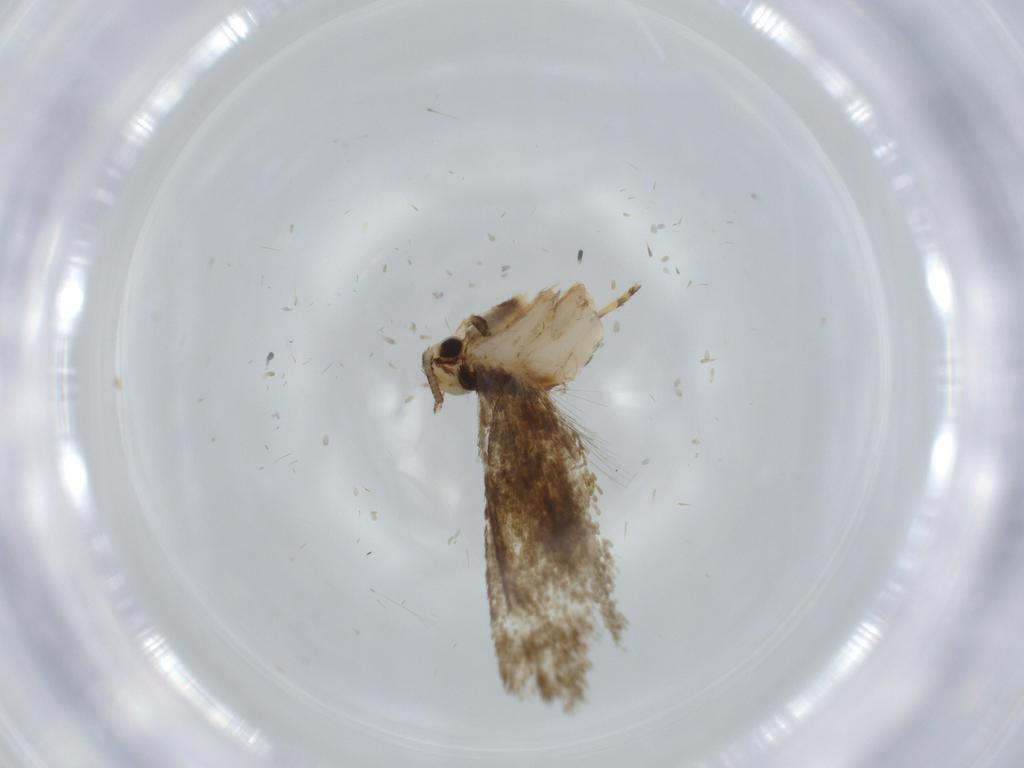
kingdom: Animalia
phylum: Arthropoda
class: Insecta
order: Lepidoptera
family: Tineidae
